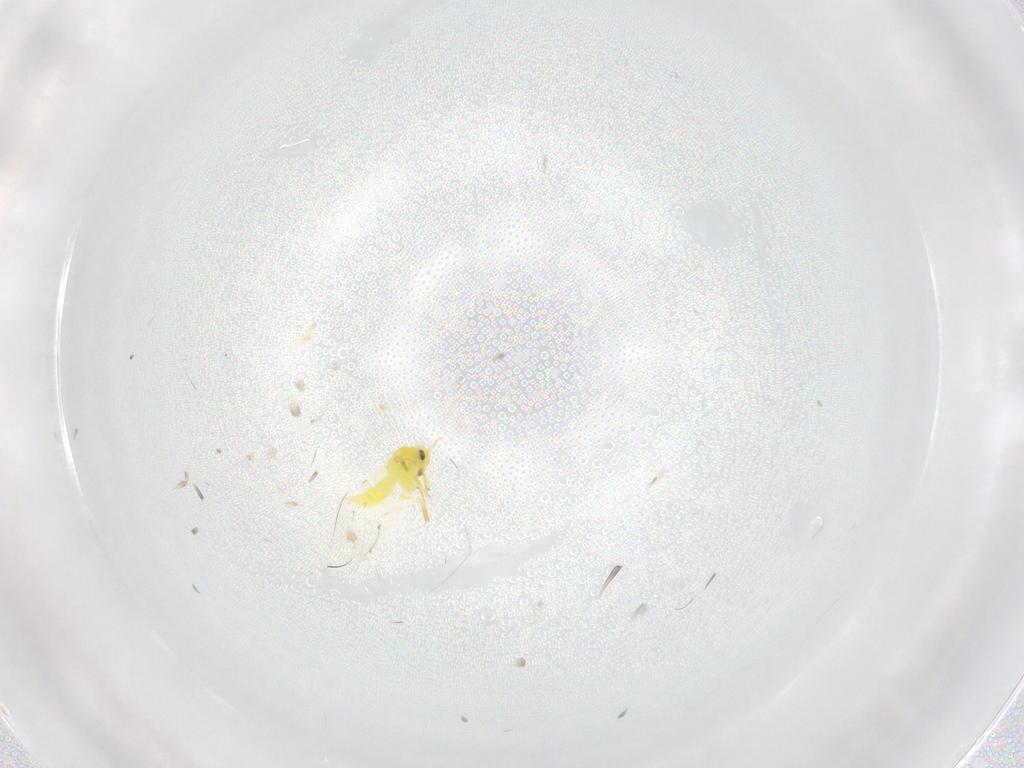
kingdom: Animalia
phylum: Arthropoda
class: Insecta
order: Hemiptera
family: Aleyrodidae
